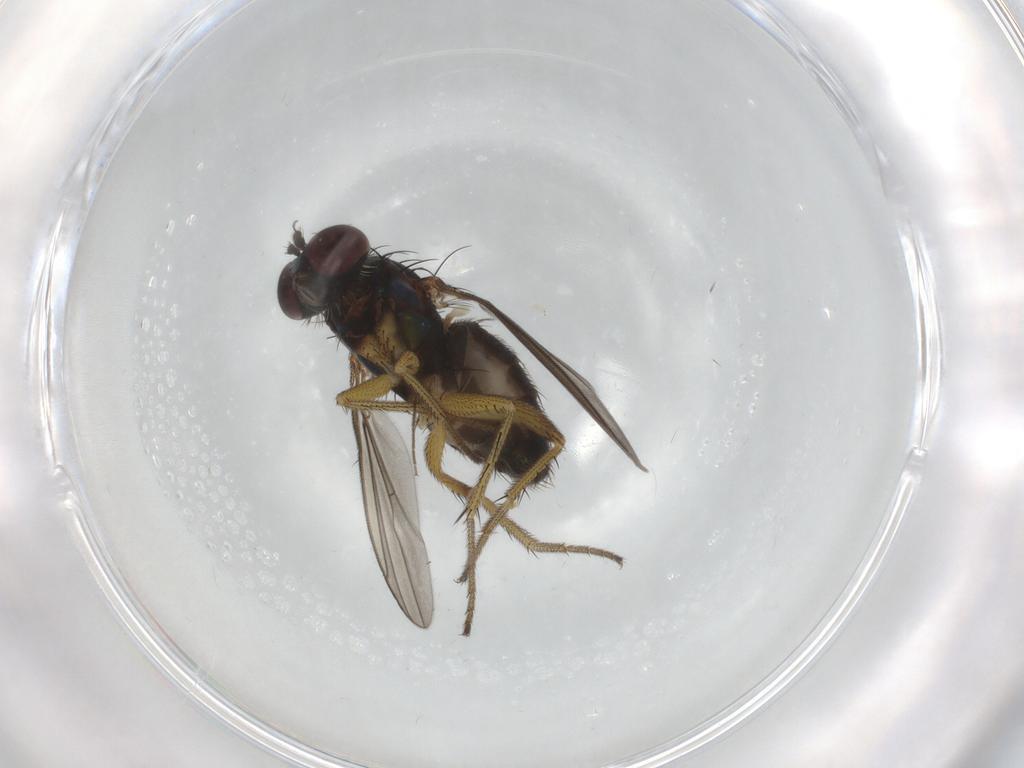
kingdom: Animalia
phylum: Arthropoda
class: Insecta
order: Diptera
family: Dolichopodidae
